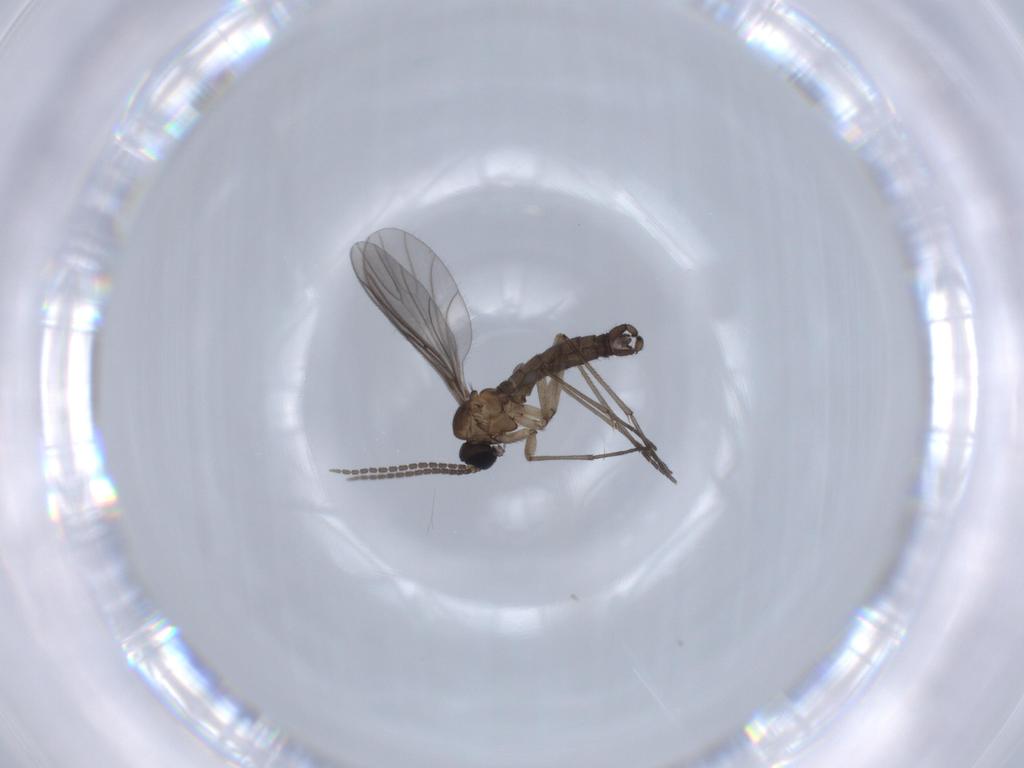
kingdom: Animalia
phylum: Arthropoda
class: Insecta
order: Diptera
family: Sciaridae
